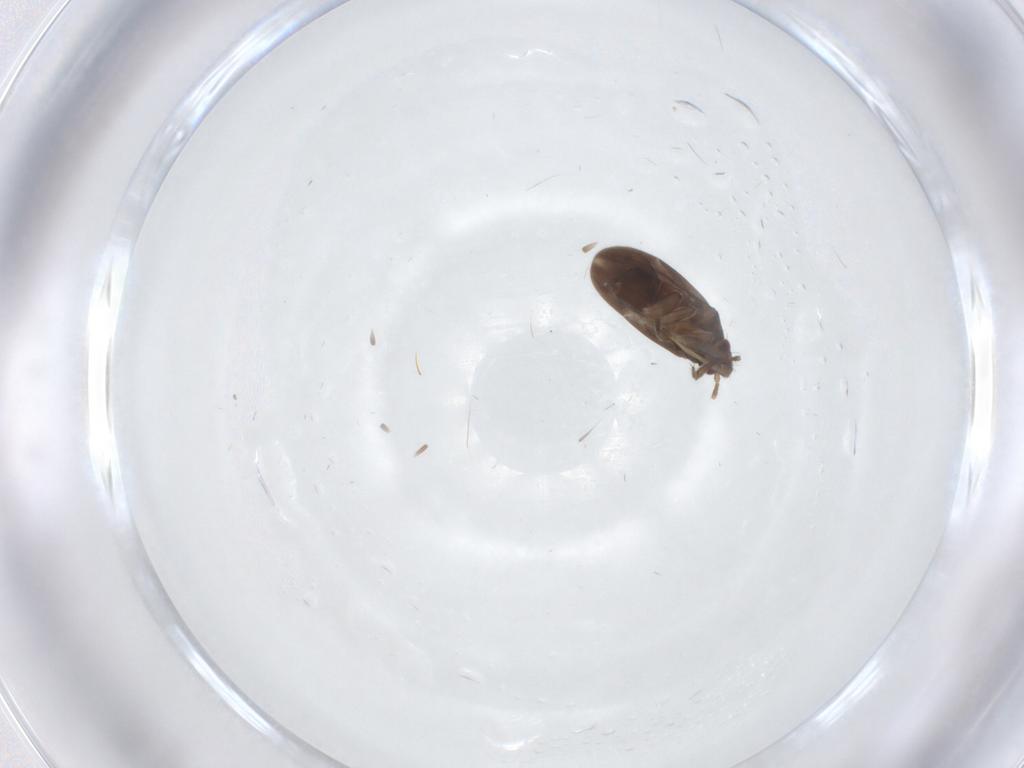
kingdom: Animalia
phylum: Arthropoda
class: Insecta
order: Hemiptera
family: Ceratocombidae
